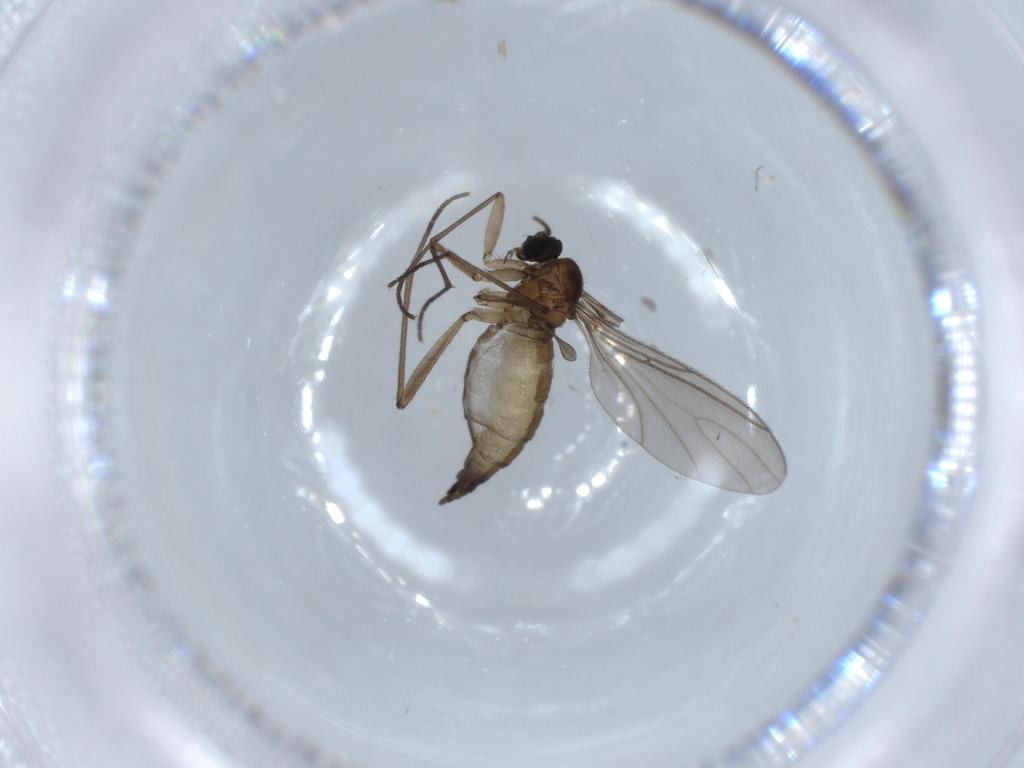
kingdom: Animalia
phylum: Arthropoda
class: Insecta
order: Diptera
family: Sciaridae
